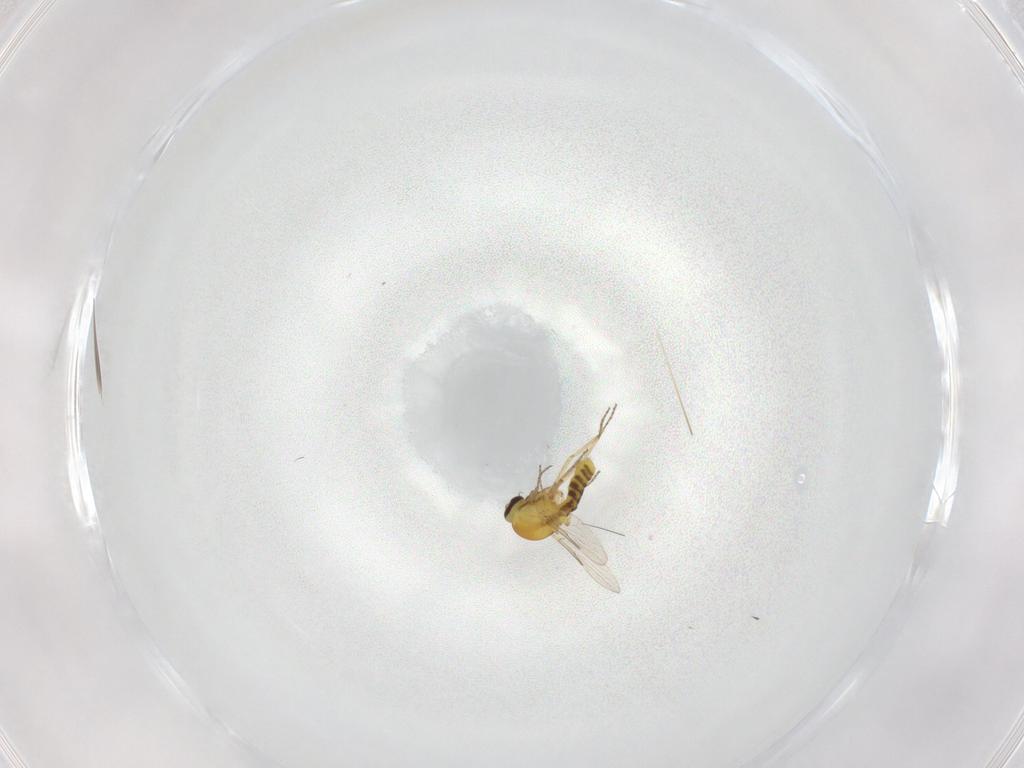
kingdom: Animalia
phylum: Arthropoda
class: Insecta
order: Diptera
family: Ceratopogonidae
